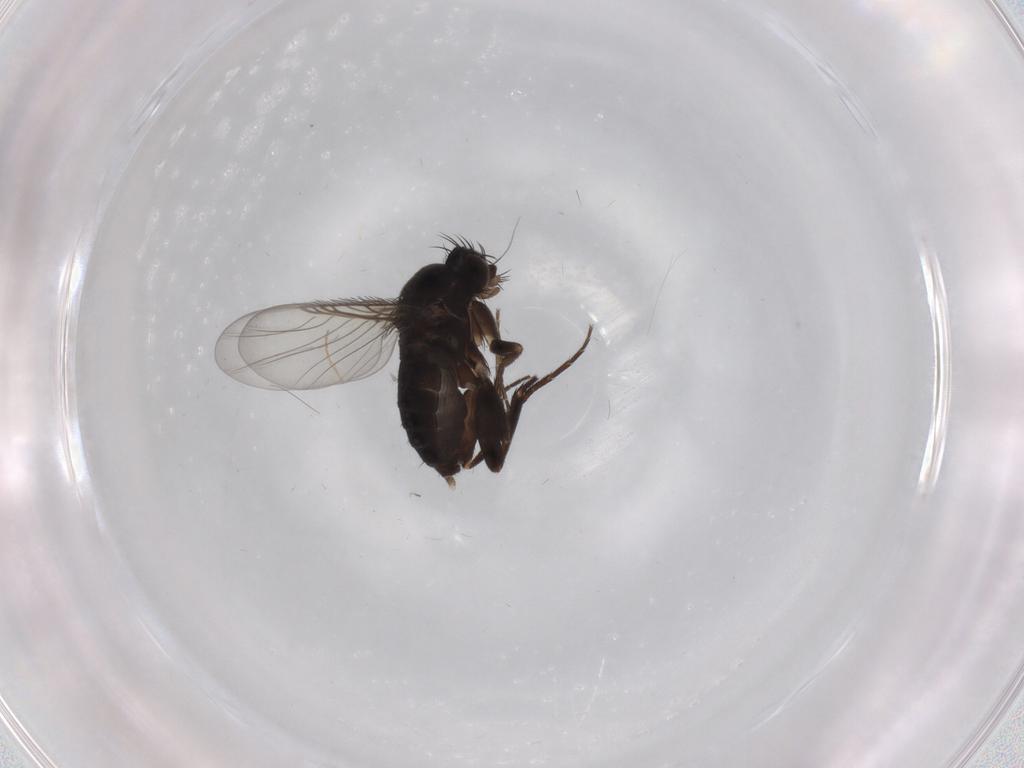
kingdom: Animalia
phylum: Arthropoda
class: Insecta
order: Diptera
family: Phoridae
